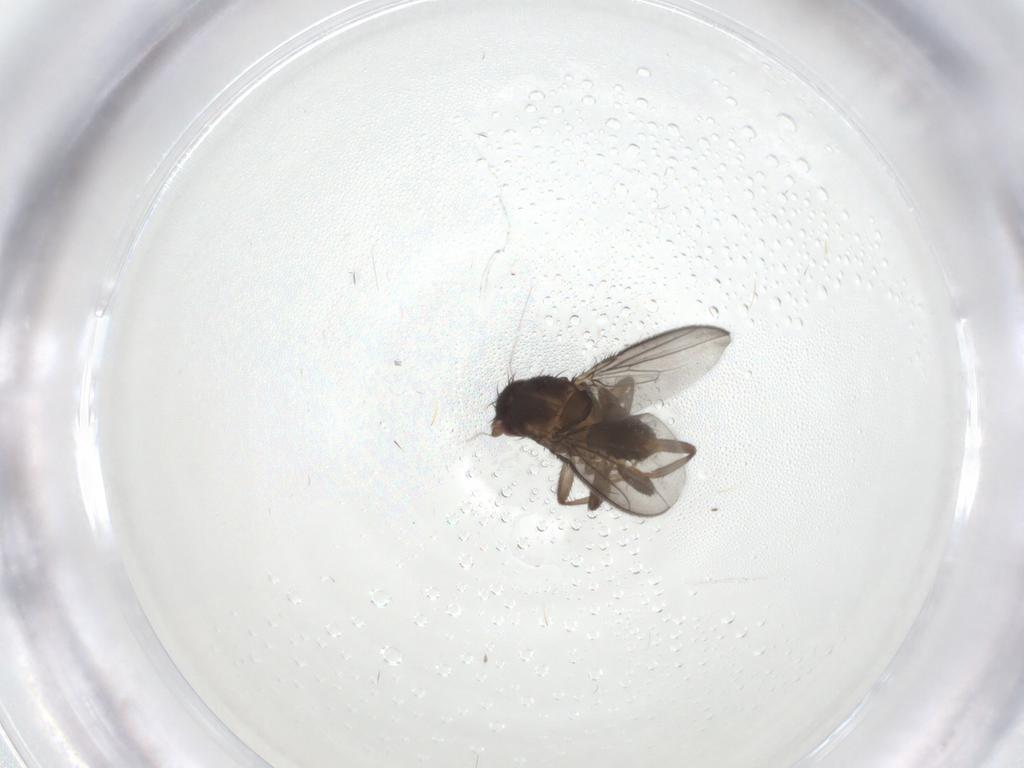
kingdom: Animalia
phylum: Arthropoda
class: Insecta
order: Diptera
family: Sphaeroceridae
